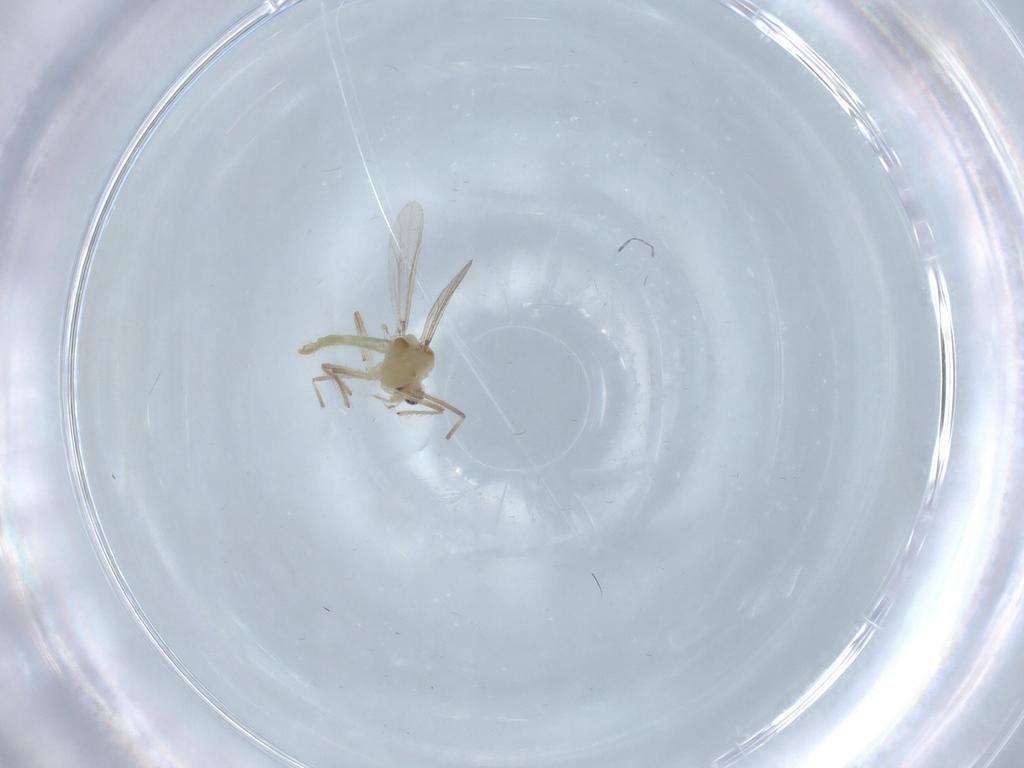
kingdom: Animalia
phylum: Arthropoda
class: Insecta
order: Diptera
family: Chironomidae
